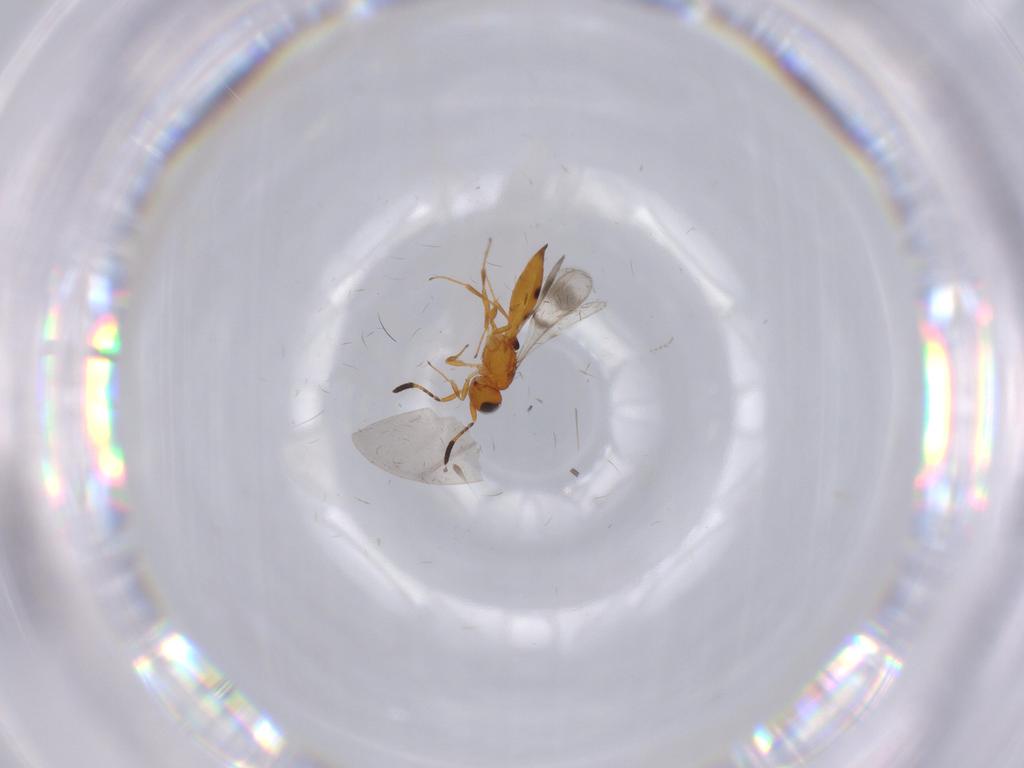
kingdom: Animalia
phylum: Arthropoda
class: Insecta
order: Hymenoptera
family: Scelionidae
